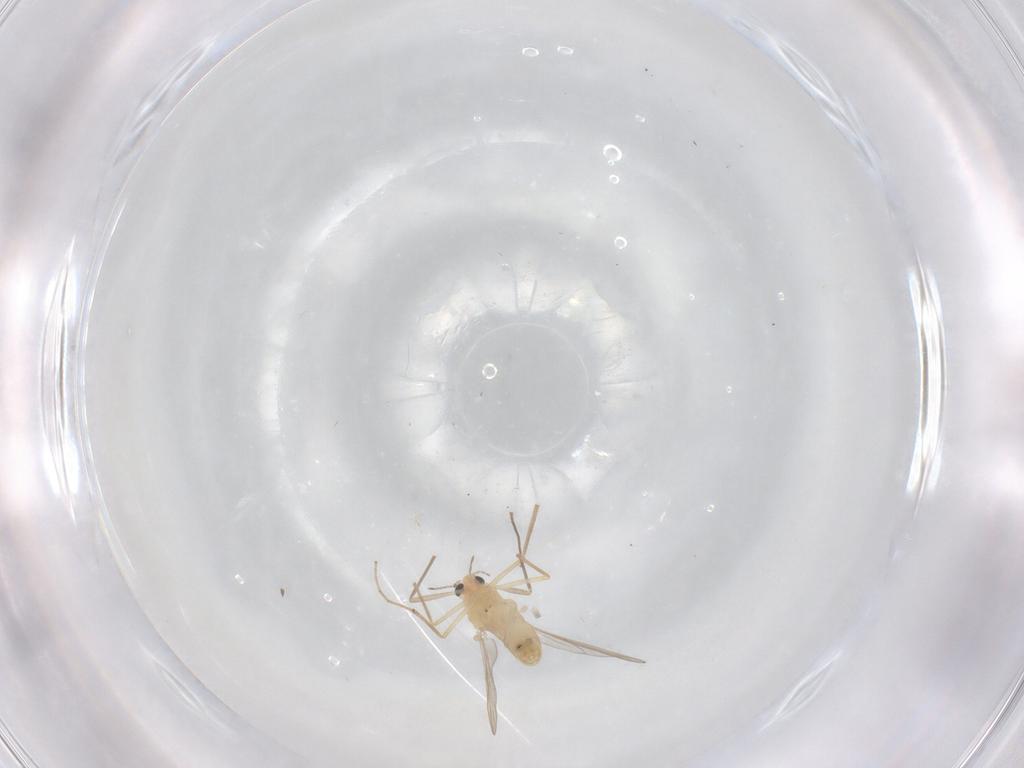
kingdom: Animalia
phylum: Arthropoda
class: Insecta
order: Diptera
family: Chironomidae
